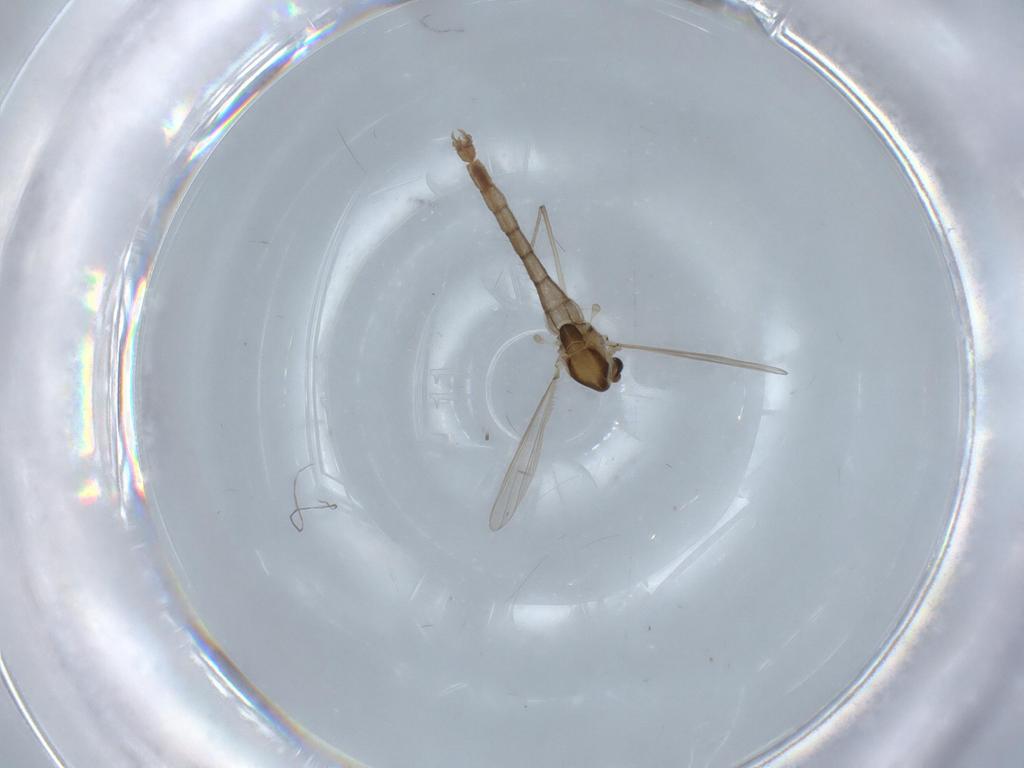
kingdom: Animalia
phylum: Arthropoda
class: Insecta
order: Diptera
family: Chironomidae
